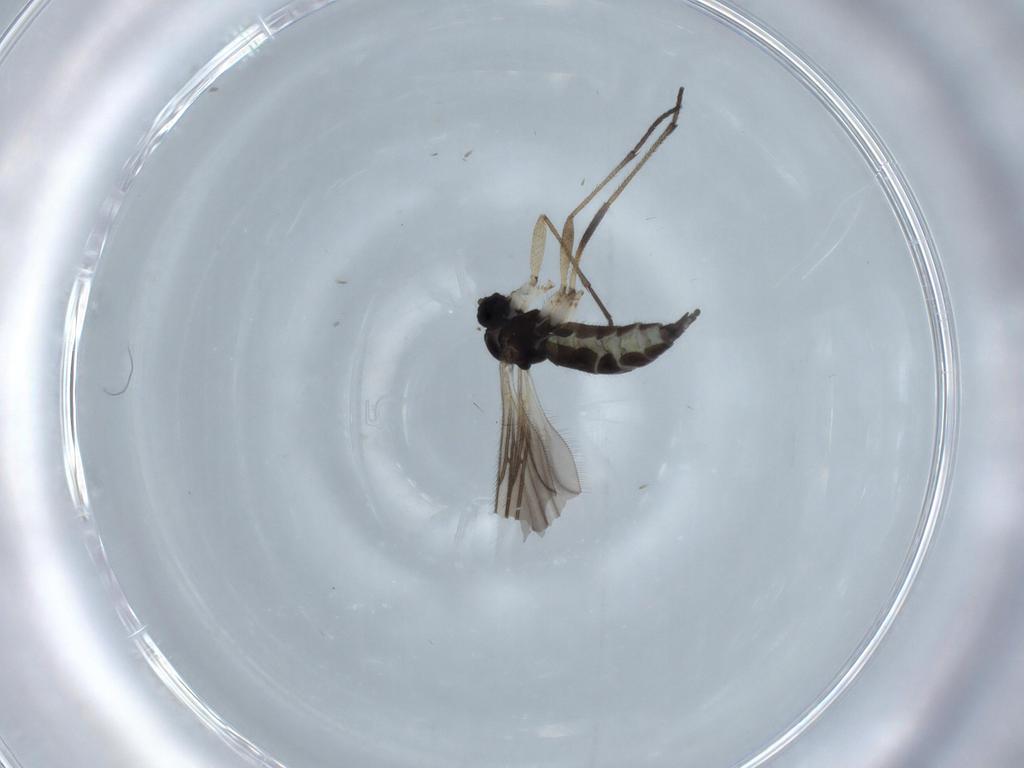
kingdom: Animalia
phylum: Arthropoda
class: Insecta
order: Diptera
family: Sciaridae
